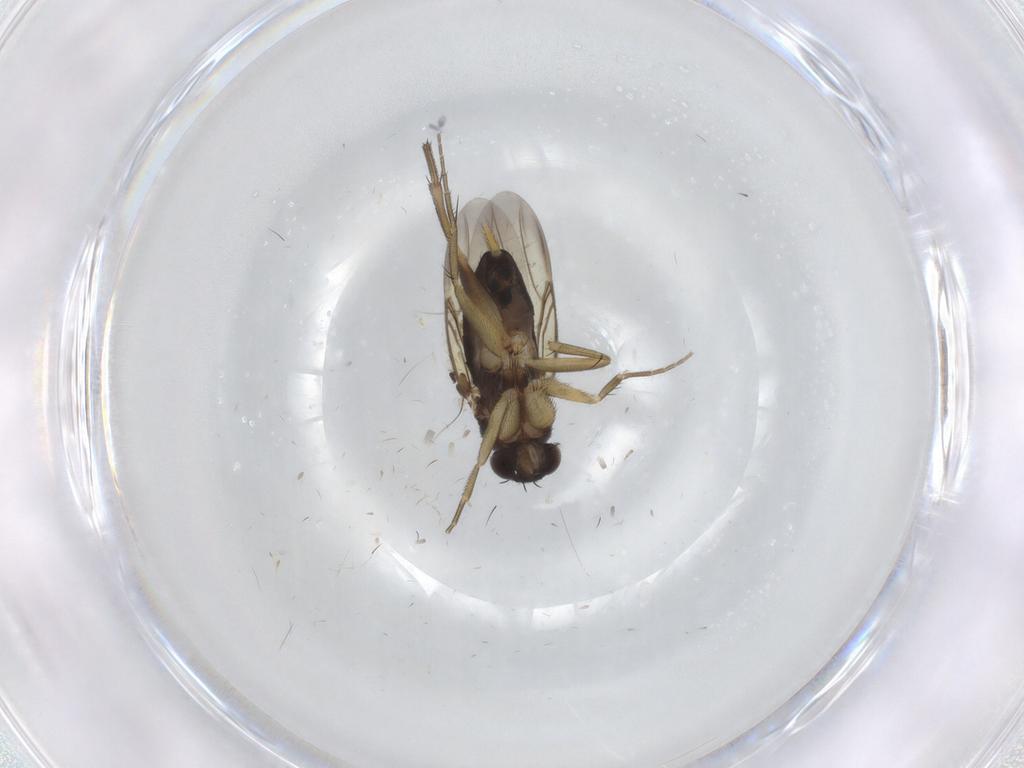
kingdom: Animalia
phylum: Arthropoda
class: Insecta
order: Diptera
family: Phoridae
